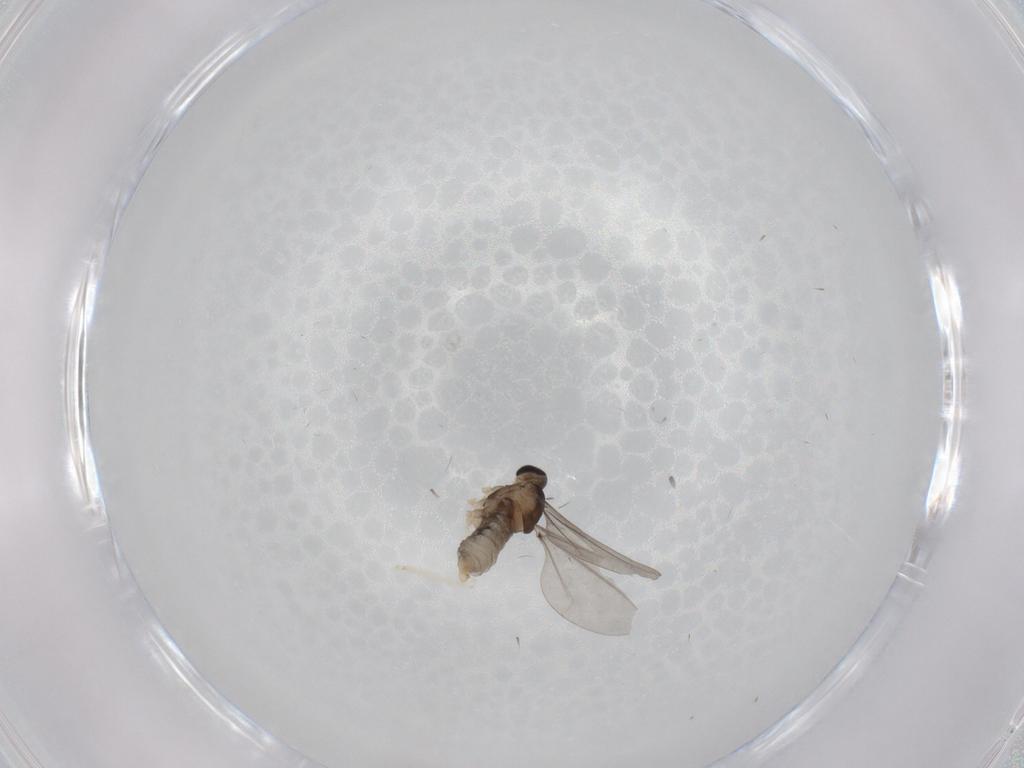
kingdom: Animalia
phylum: Arthropoda
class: Insecta
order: Diptera
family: Cecidomyiidae
